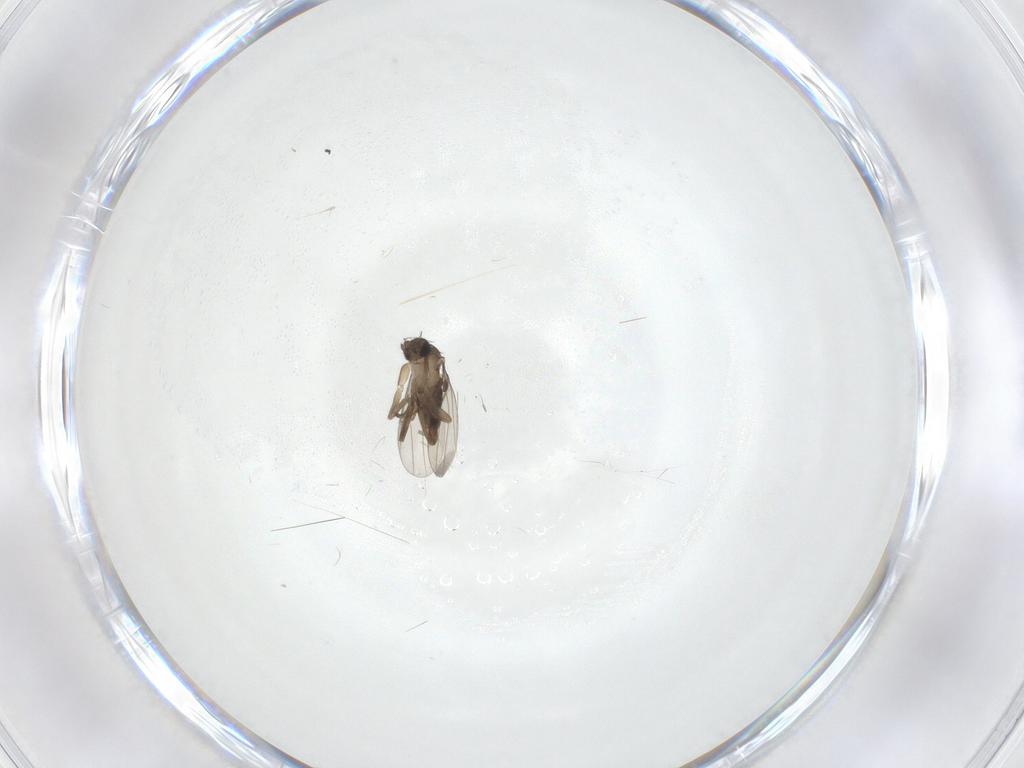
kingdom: Animalia
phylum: Arthropoda
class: Insecta
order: Diptera
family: Phoridae
